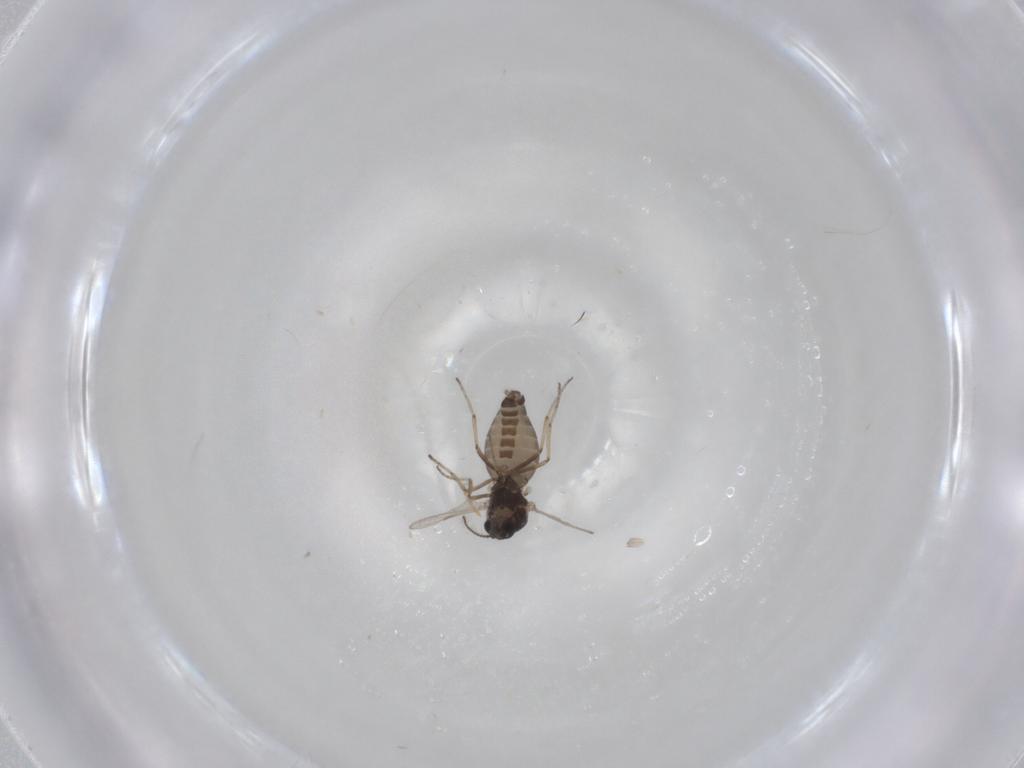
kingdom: Animalia
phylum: Arthropoda
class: Insecta
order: Diptera
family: Ceratopogonidae
